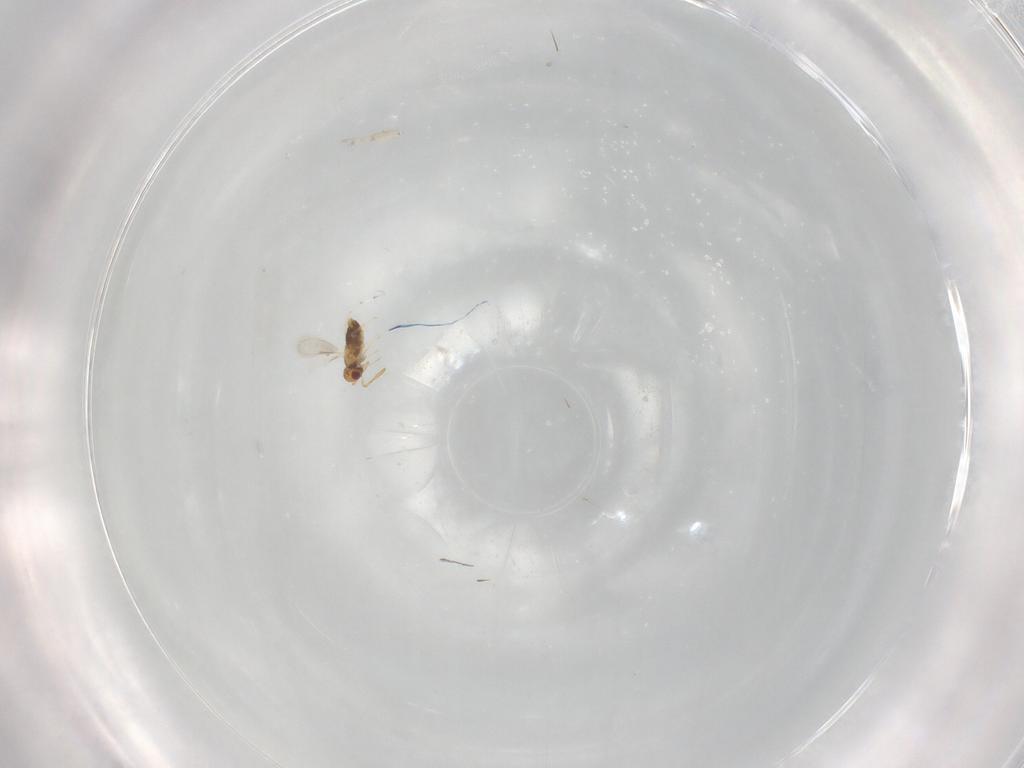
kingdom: Animalia
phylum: Arthropoda
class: Insecta
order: Hymenoptera
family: Aphelinidae
